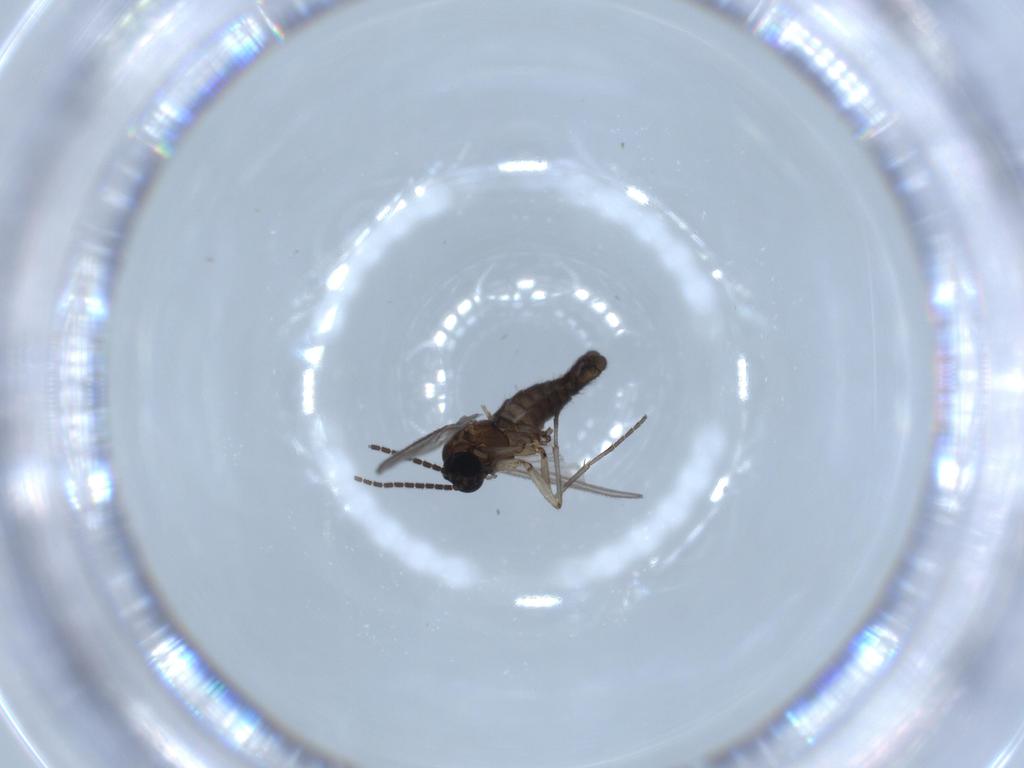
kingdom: Animalia
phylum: Arthropoda
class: Insecta
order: Diptera
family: Sciaridae
